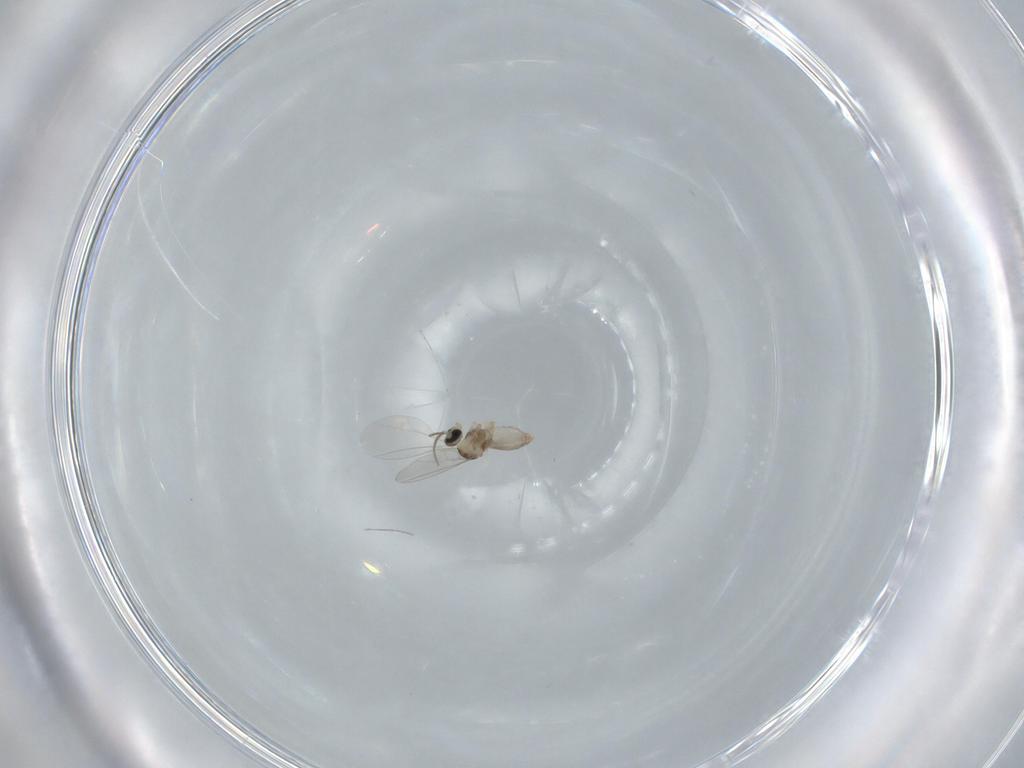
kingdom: Animalia
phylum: Arthropoda
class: Insecta
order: Diptera
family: Cecidomyiidae
